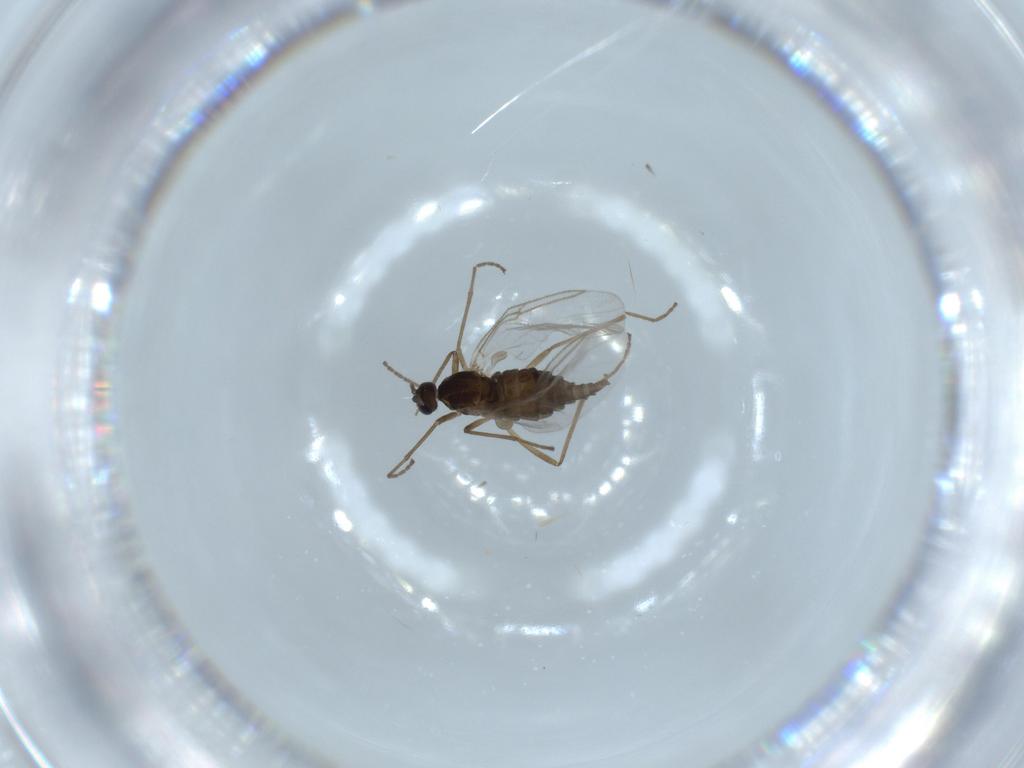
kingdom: Animalia
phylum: Arthropoda
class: Insecta
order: Diptera
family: Cecidomyiidae
